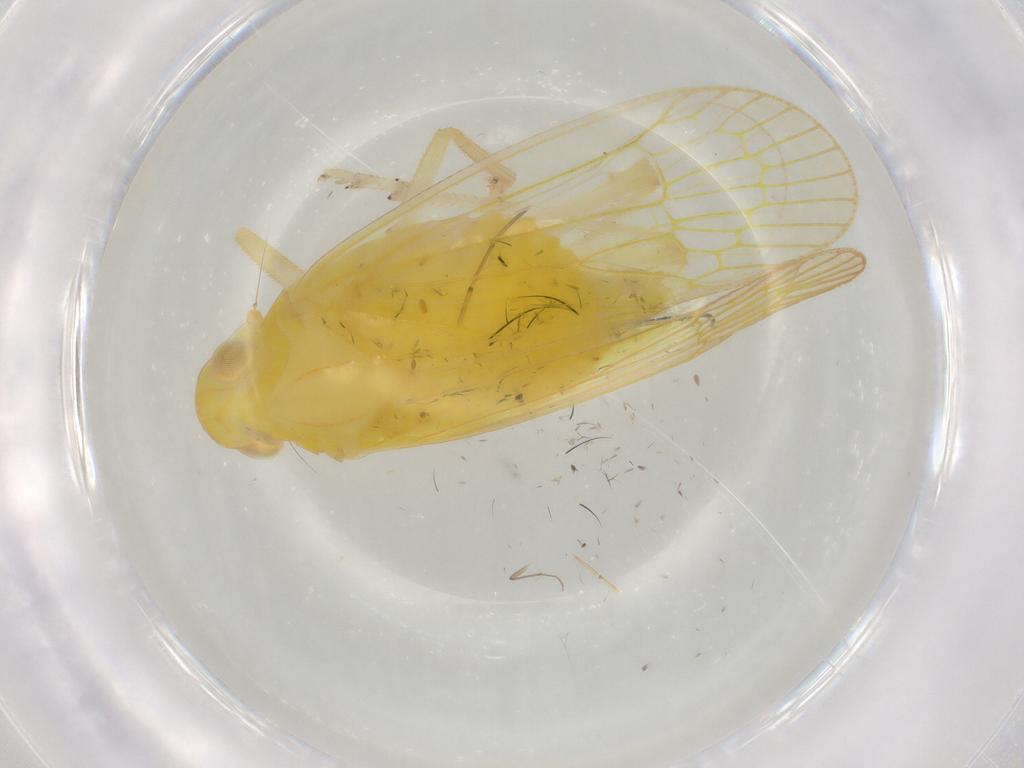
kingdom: Animalia
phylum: Arthropoda
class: Insecta
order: Hemiptera
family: Tropiduchidae
